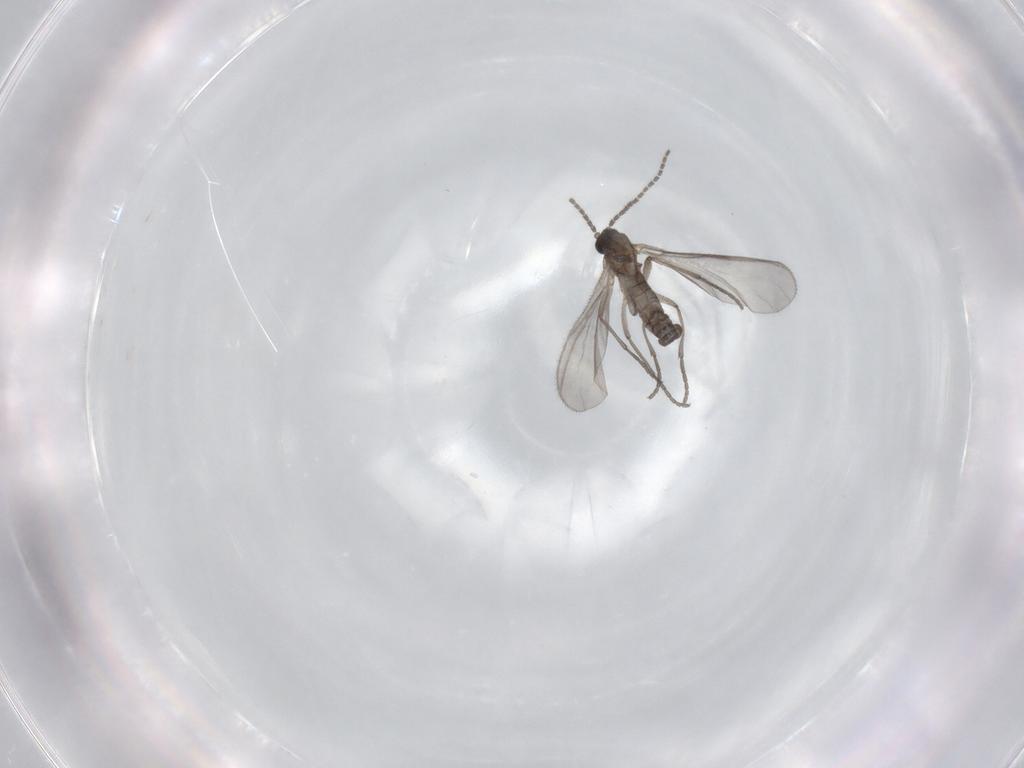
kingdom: Animalia
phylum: Arthropoda
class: Insecta
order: Diptera
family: Sciaridae
